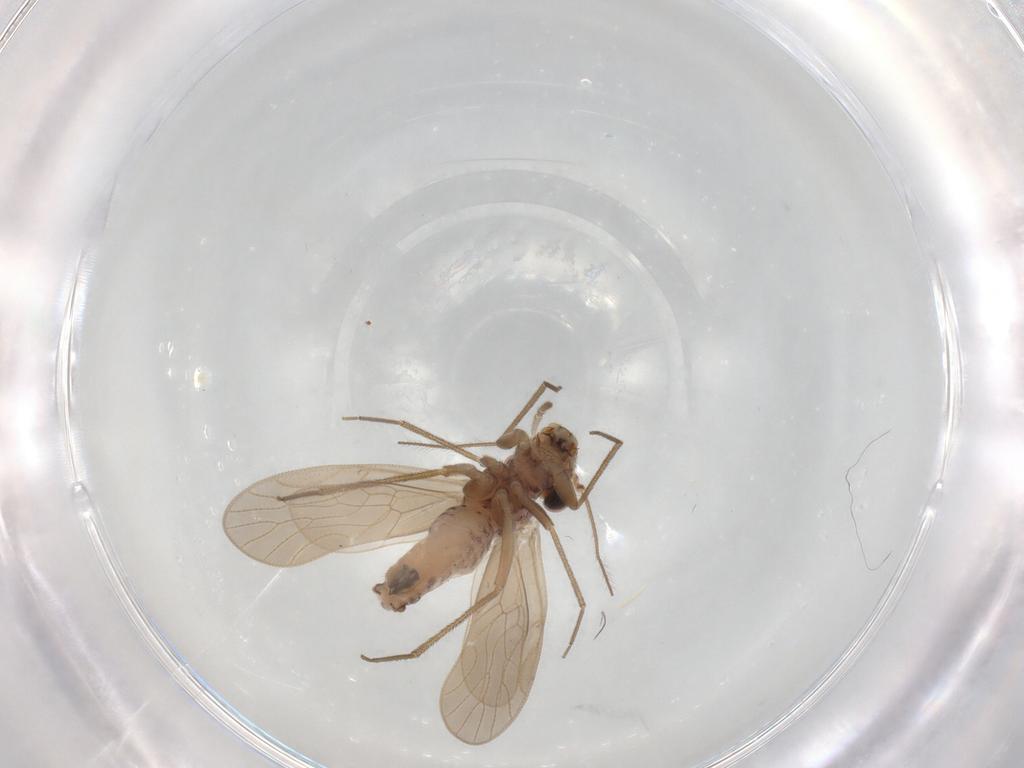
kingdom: Animalia
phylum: Arthropoda
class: Insecta
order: Psocodea
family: Mesopsocidae
